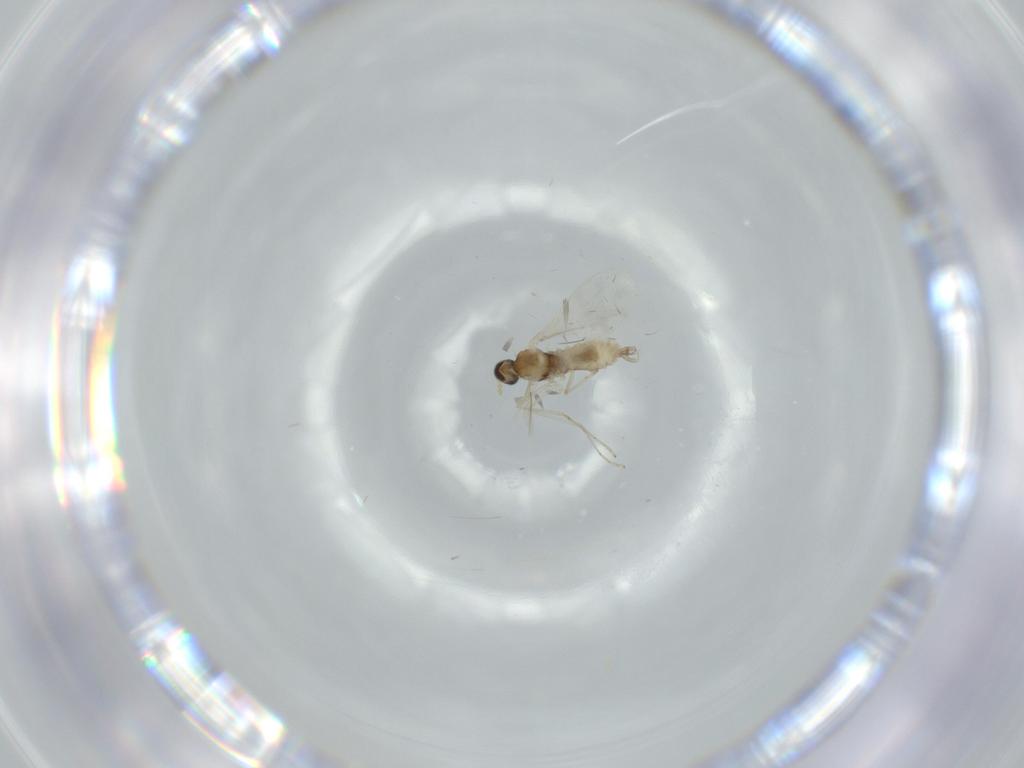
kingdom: Animalia
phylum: Arthropoda
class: Insecta
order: Diptera
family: Cecidomyiidae
